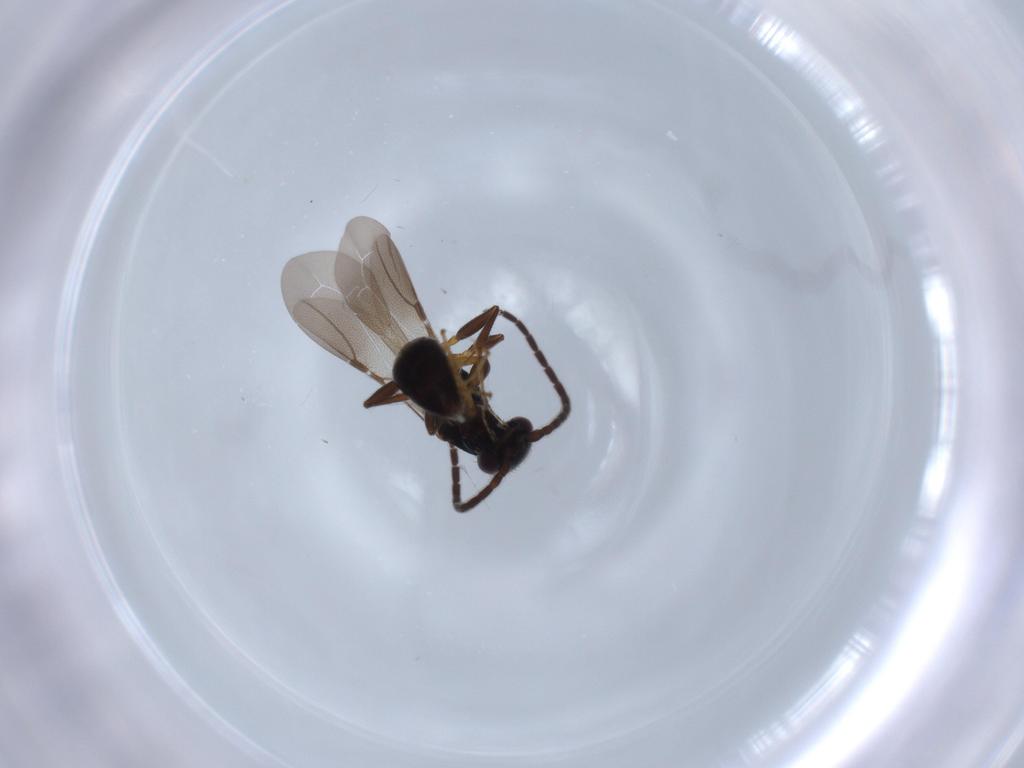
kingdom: Animalia
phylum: Arthropoda
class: Insecta
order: Hymenoptera
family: Bethylidae
